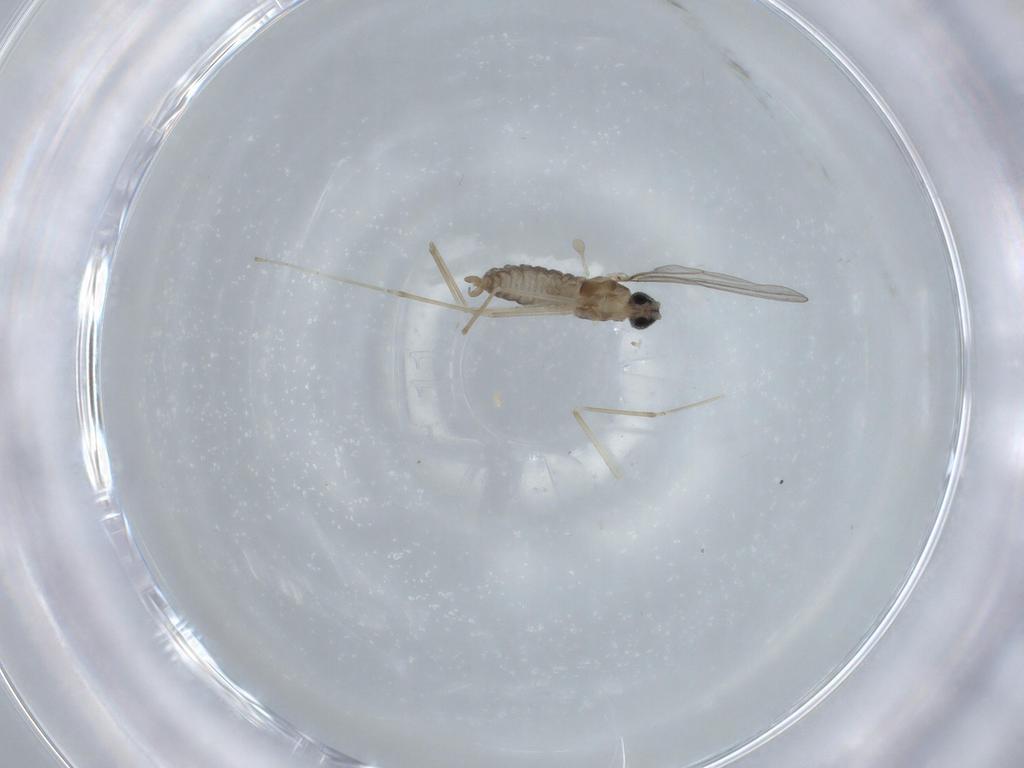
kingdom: Animalia
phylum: Arthropoda
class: Insecta
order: Diptera
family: Cecidomyiidae
